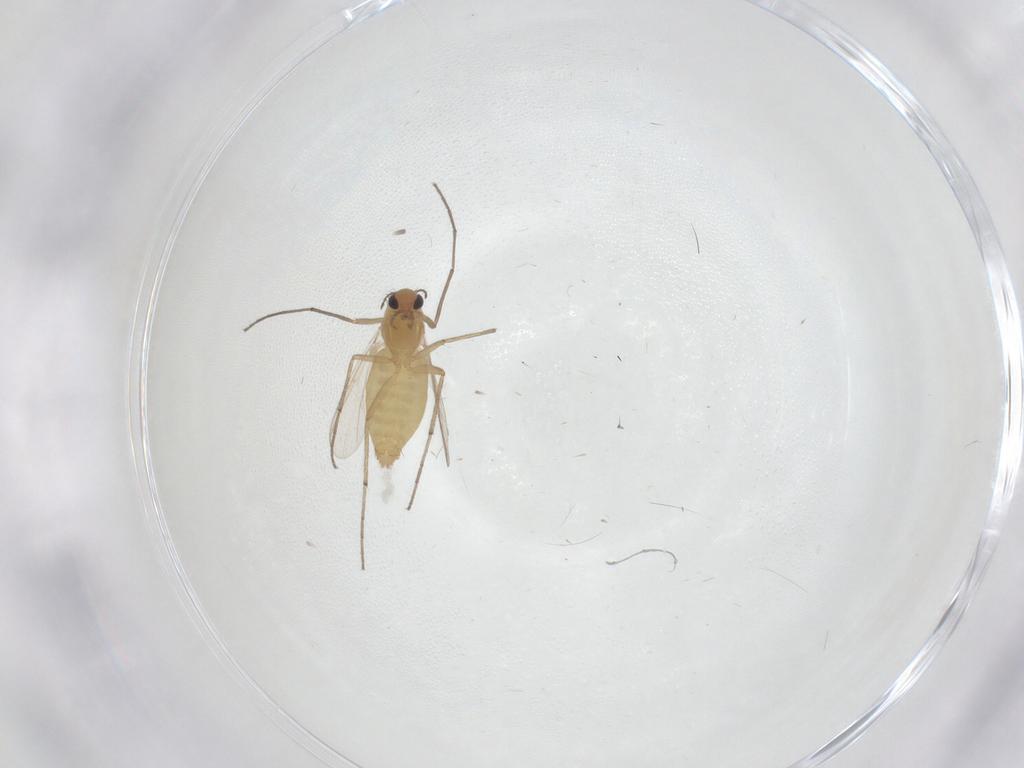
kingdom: Animalia
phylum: Arthropoda
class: Insecta
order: Diptera
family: Chironomidae
